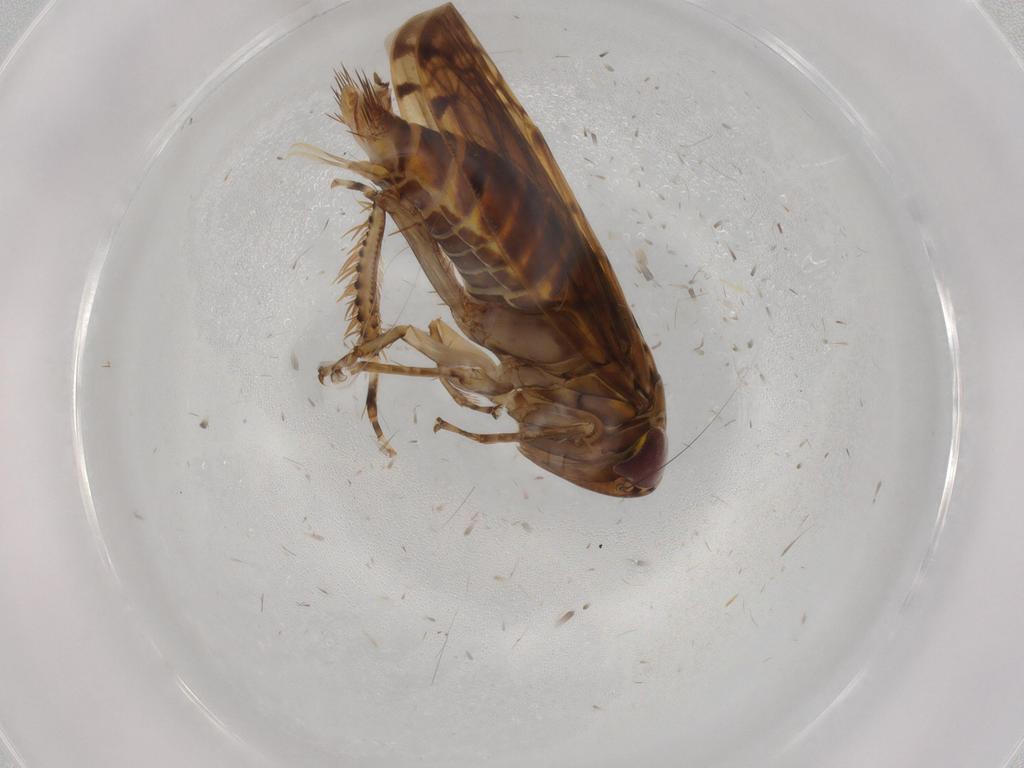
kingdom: Animalia
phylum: Arthropoda
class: Insecta
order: Hemiptera
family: Cicadellidae
